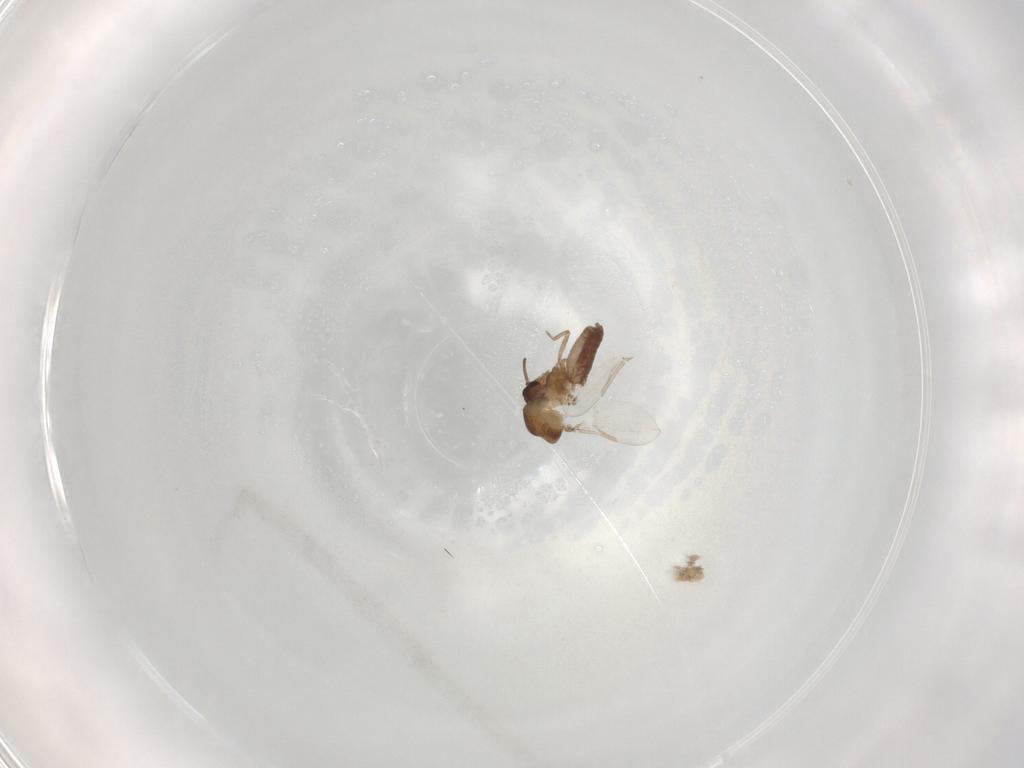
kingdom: Animalia
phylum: Arthropoda
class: Insecta
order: Diptera
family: Ceratopogonidae
